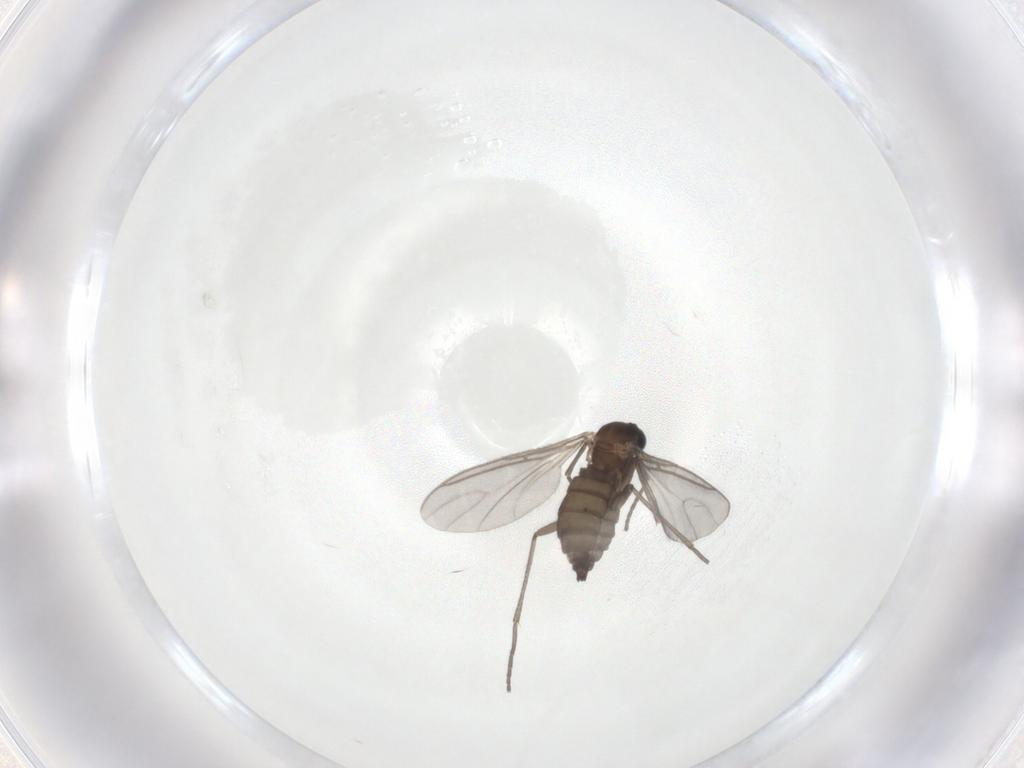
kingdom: Animalia
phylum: Arthropoda
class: Insecta
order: Diptera
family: Sciaridae
